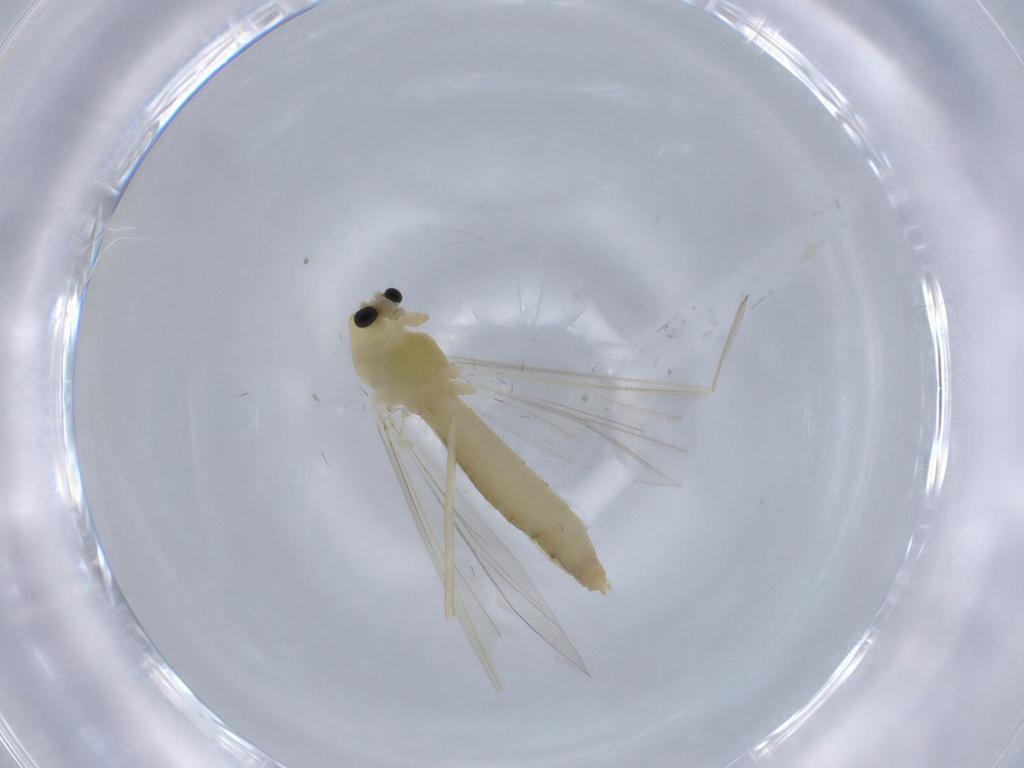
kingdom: Animalia
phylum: Arthropoda
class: Insecta
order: Diptera
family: Chironomidae
